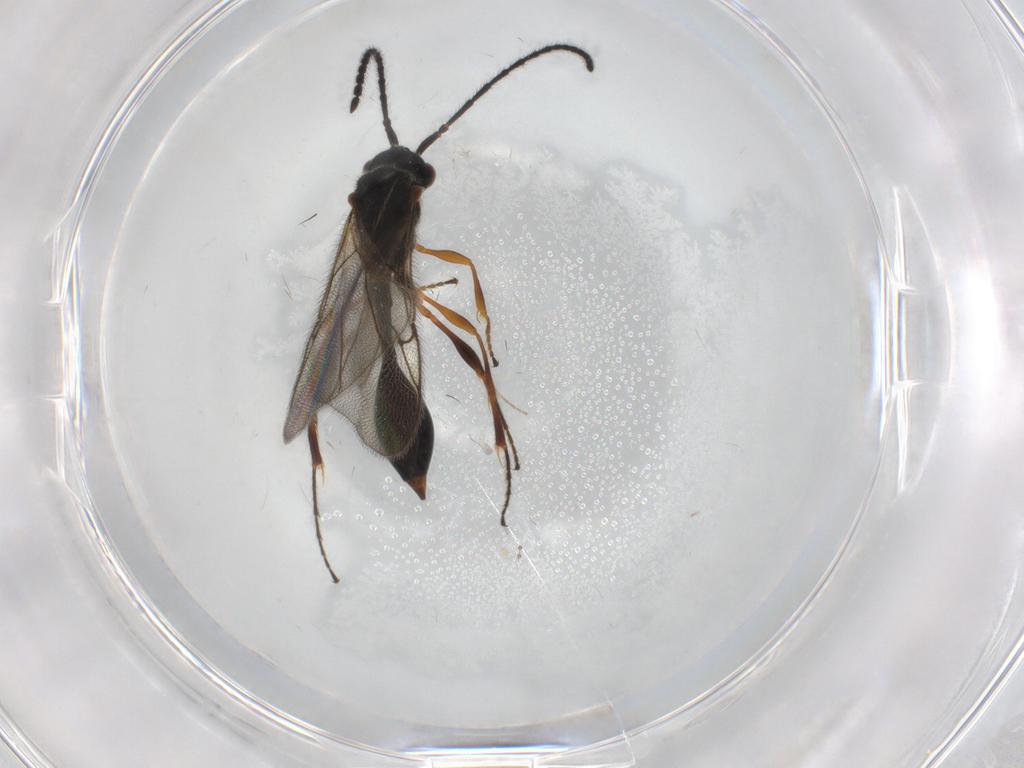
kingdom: Animalia
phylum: Arthropoda
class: Insecta
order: Hymenoptera
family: Diapriidae
